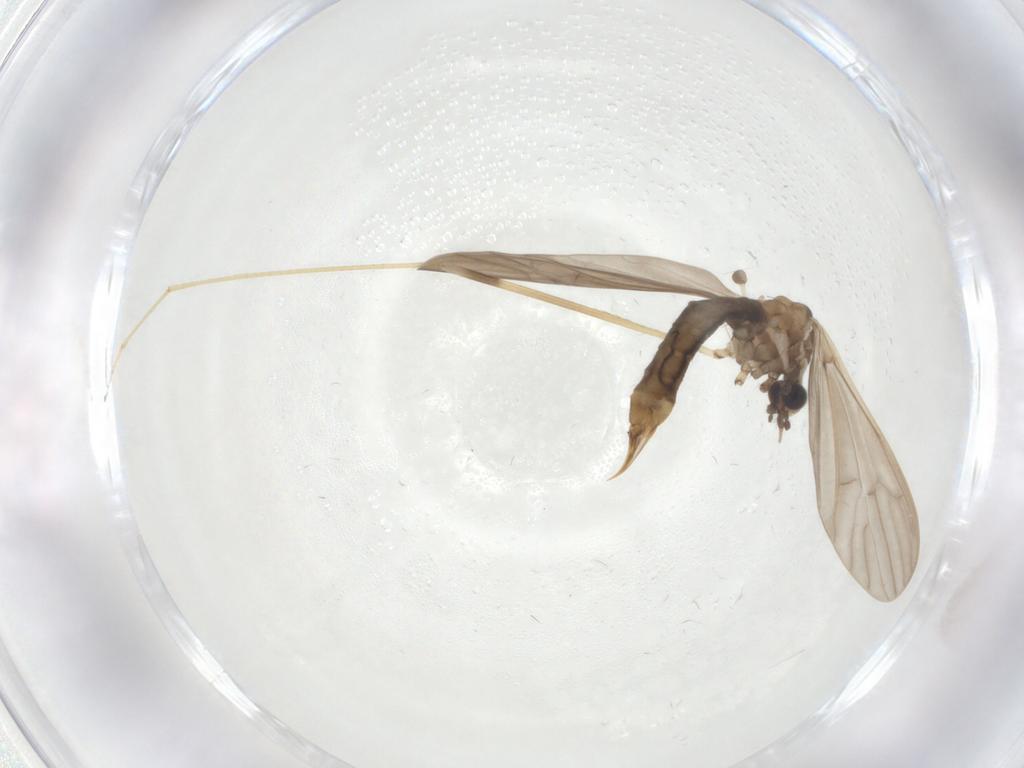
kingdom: Animalia
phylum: Arthropoda
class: Insecta
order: Diptera
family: Limoniidae
